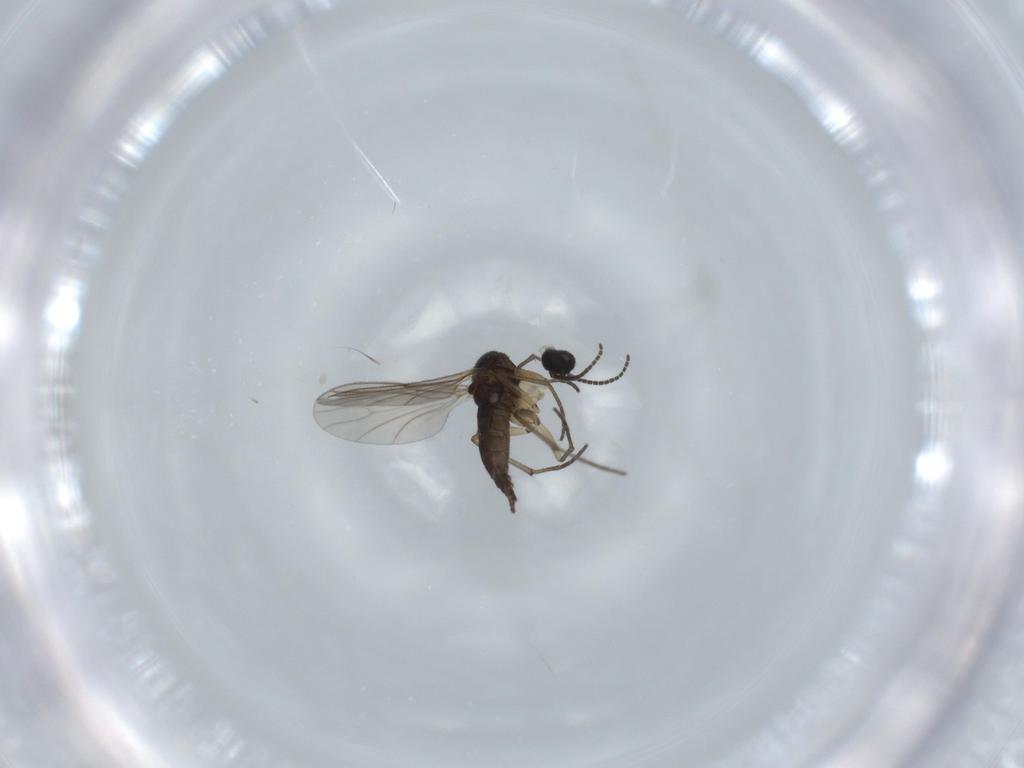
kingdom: Animalia
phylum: Arthropoda
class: Insecta
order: Diptera
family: Sciaridae
